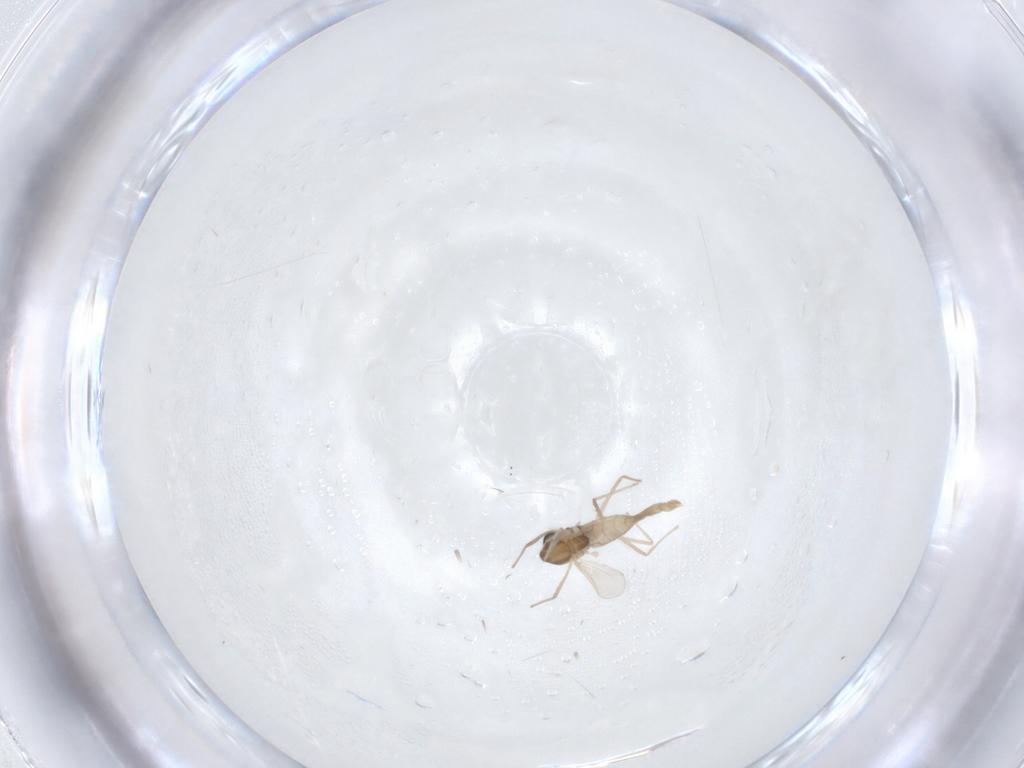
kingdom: Animalia
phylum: Arthropoda
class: Insecta
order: Diptera
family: Chironomidae
